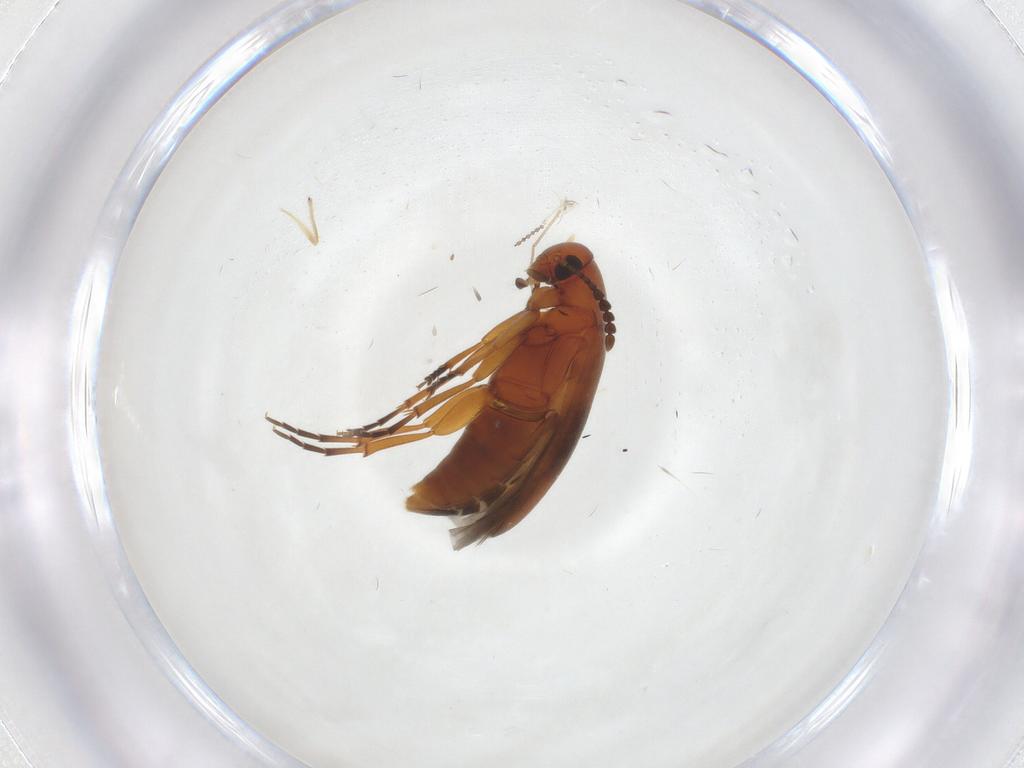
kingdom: Animalia
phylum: Arthropoda
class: Insecta
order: Coleoptera
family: Scraptiidae
